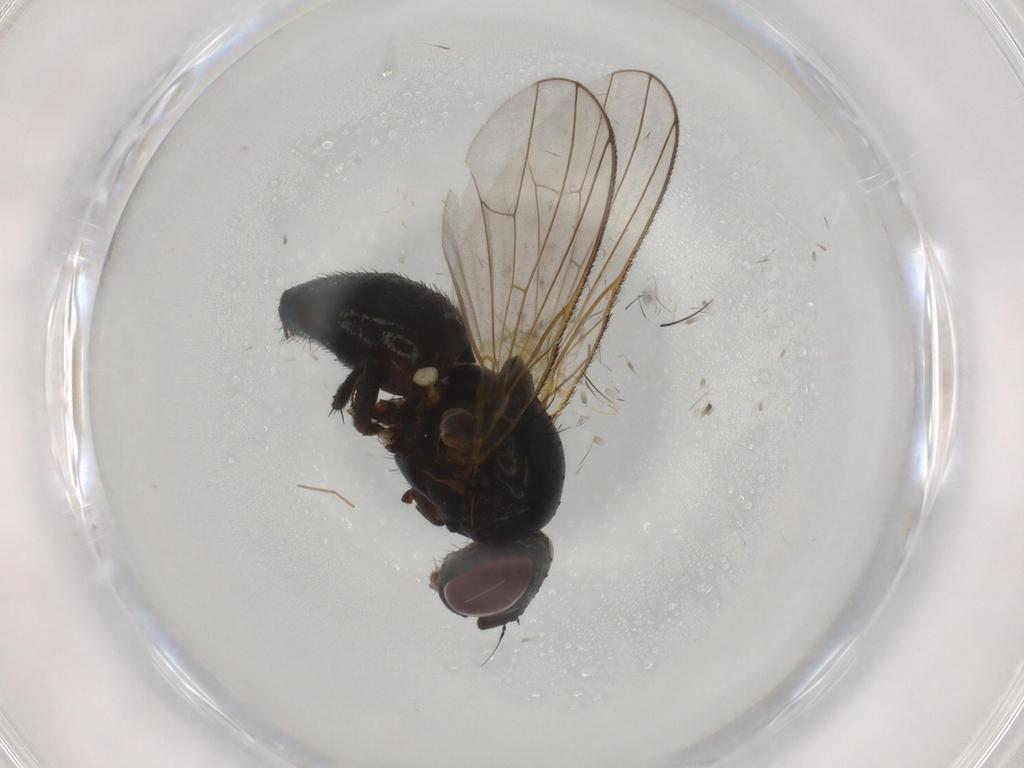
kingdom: Animalia
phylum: Arthropoda
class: Insecta
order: Diptera
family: Fannia
